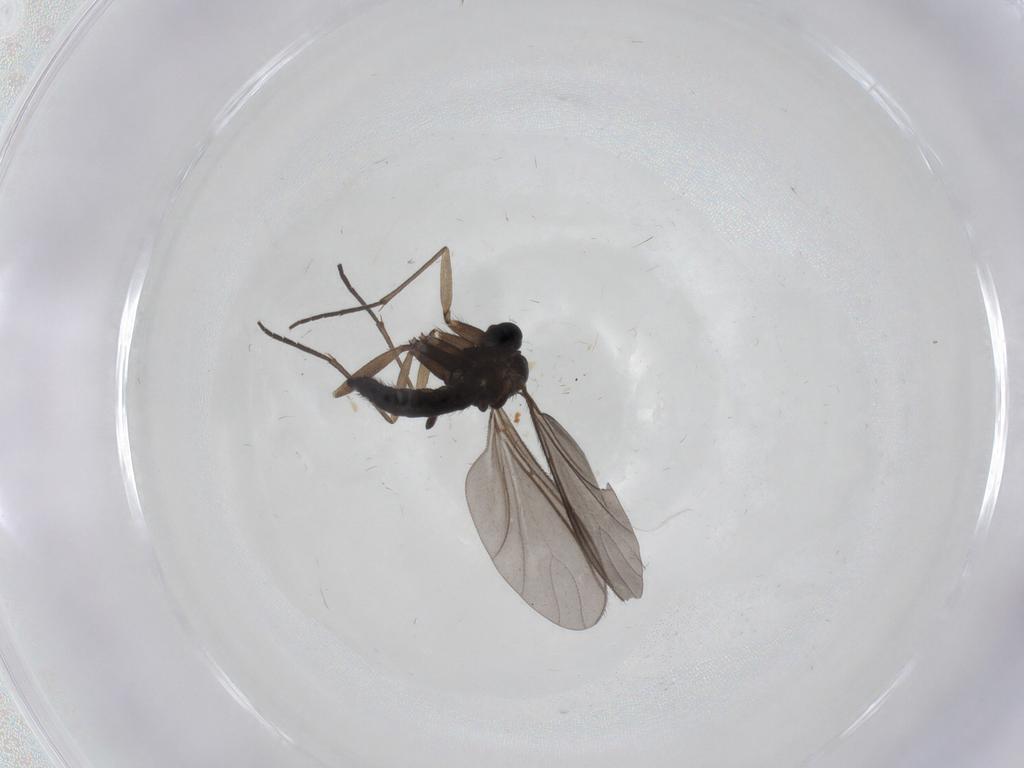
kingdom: Animalia
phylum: Arthropoda
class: Insecta
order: Diptera
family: Sciaridae
